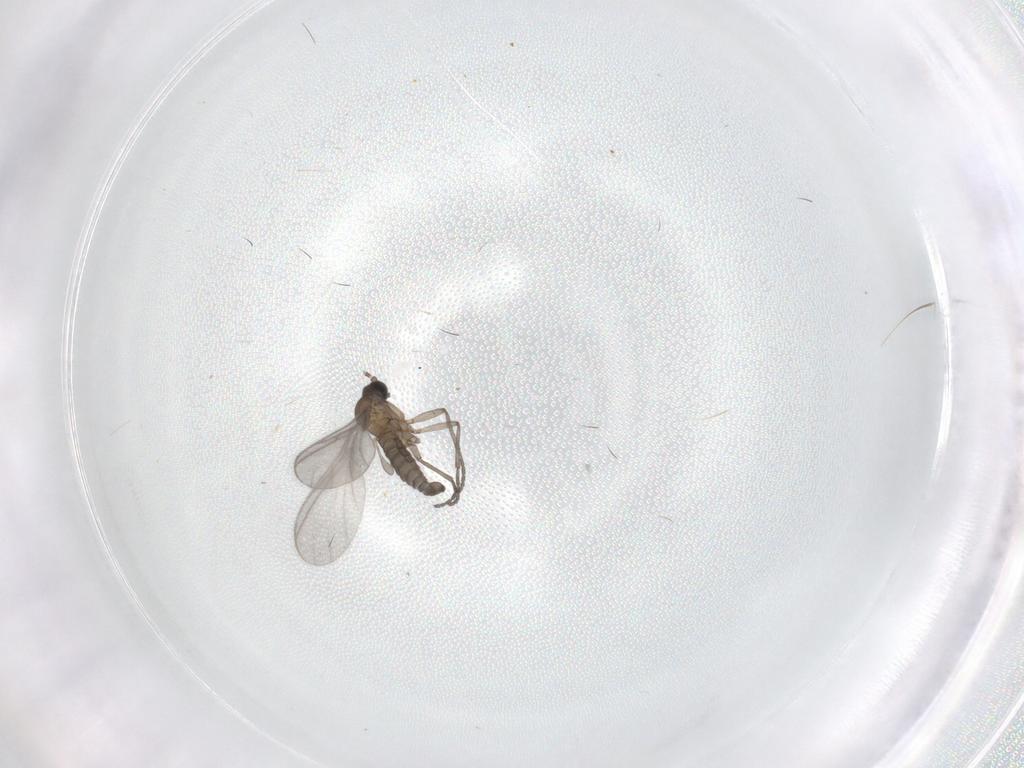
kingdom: Animalia
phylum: Arthropoda
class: Insecta
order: Diptera
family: Sciaridae
